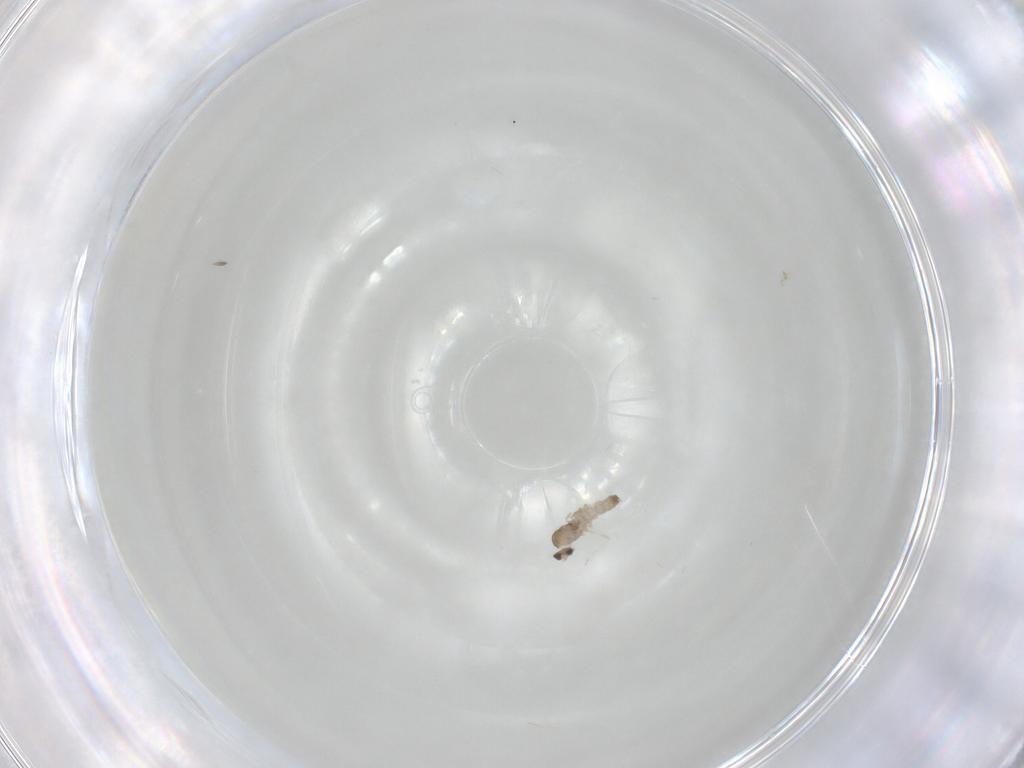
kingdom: Animalia
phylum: Arthropoda
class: Insecta
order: Diptera
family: Cecidomyiidae
